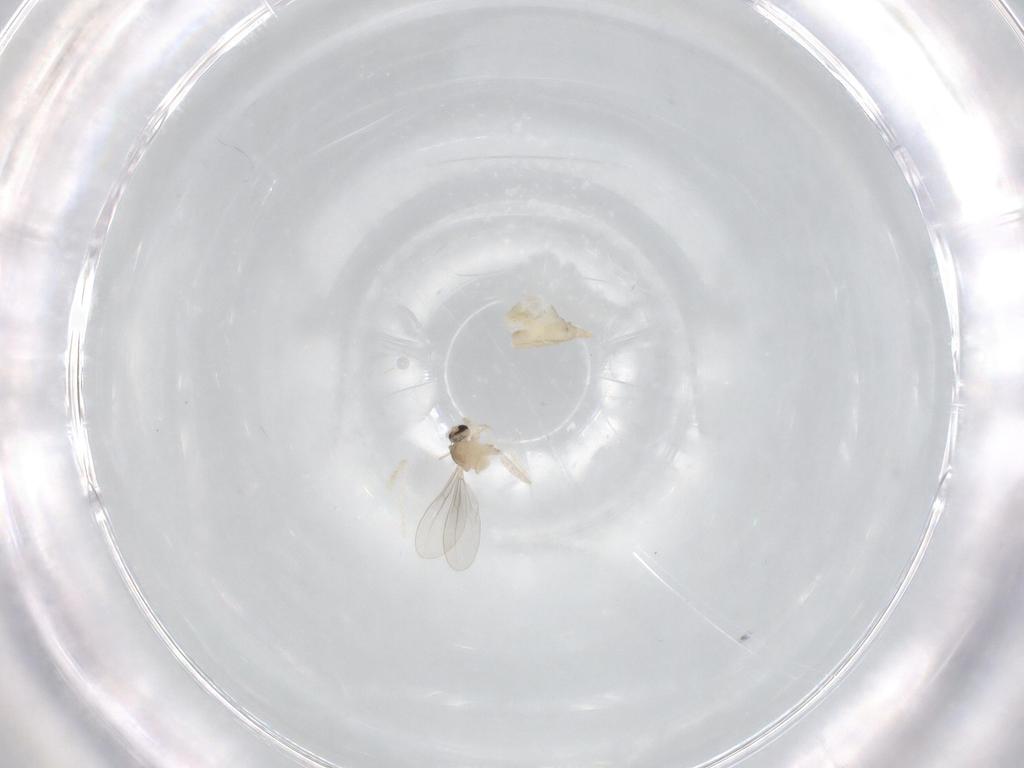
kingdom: Animalia
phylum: Arthropoda
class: Insecta
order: Diptera
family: Cecidomyiidae
